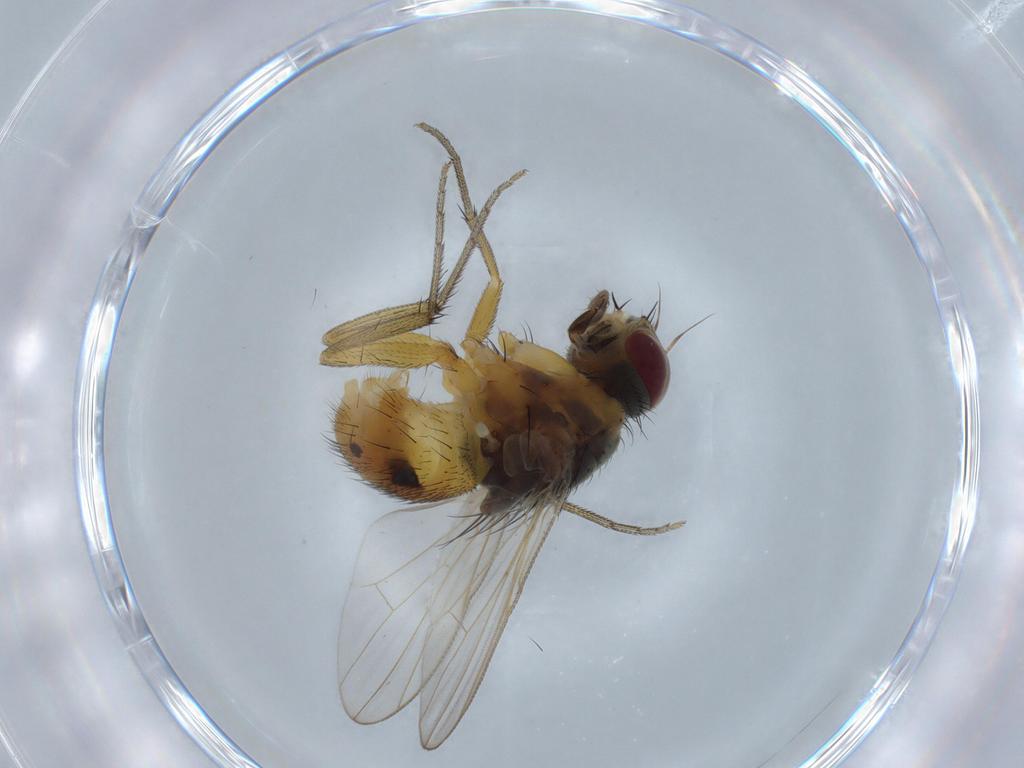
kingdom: Animalia
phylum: Arthropoda
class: Insecta
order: Diptera
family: Muscidae
